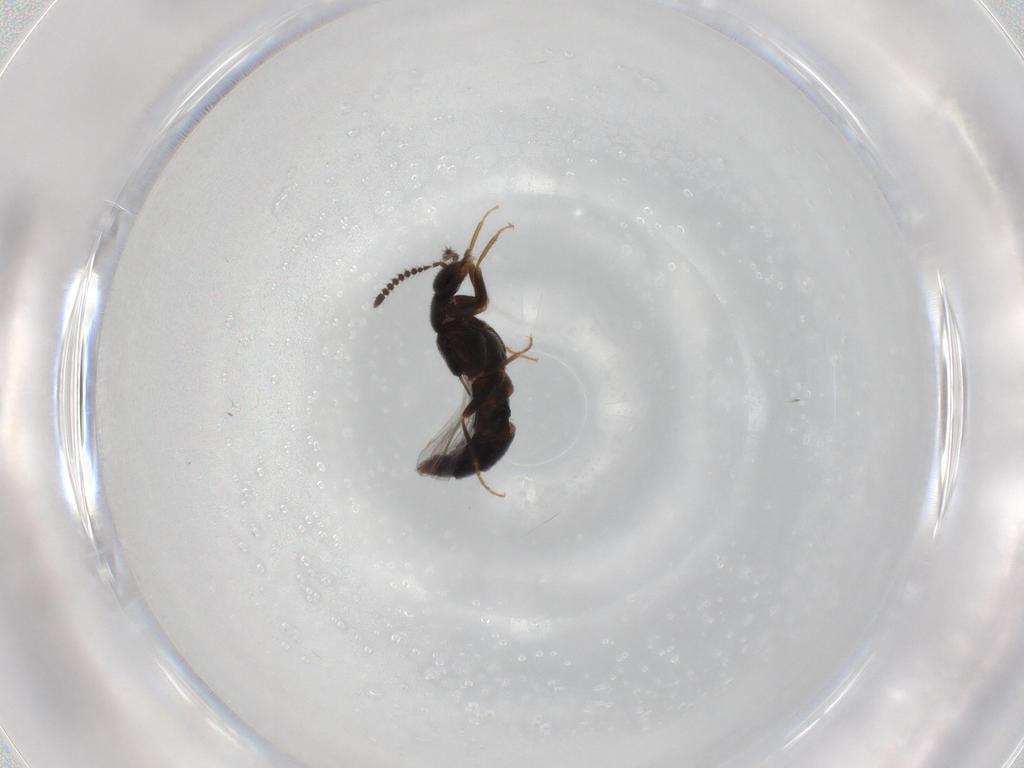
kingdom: Animalia
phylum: Arthropoda
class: Insecta
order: Coleoptera
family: Staphylinidae
